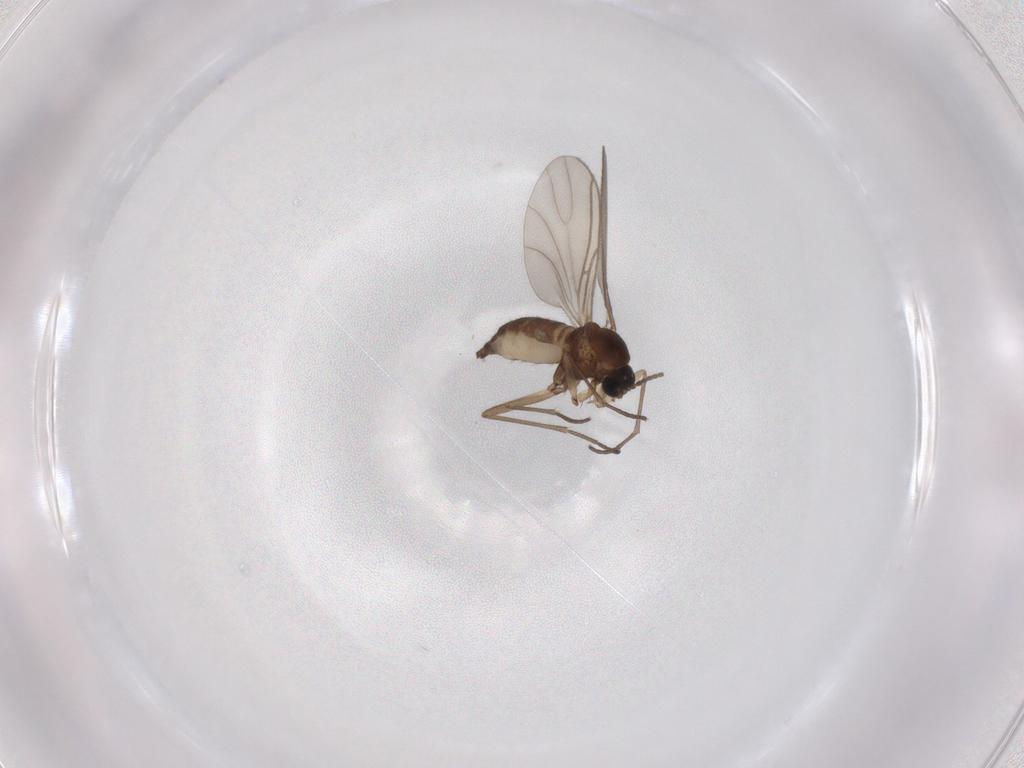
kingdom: Animalia
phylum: Arthropoda
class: Insecta
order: Diptera
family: Sciaridae
